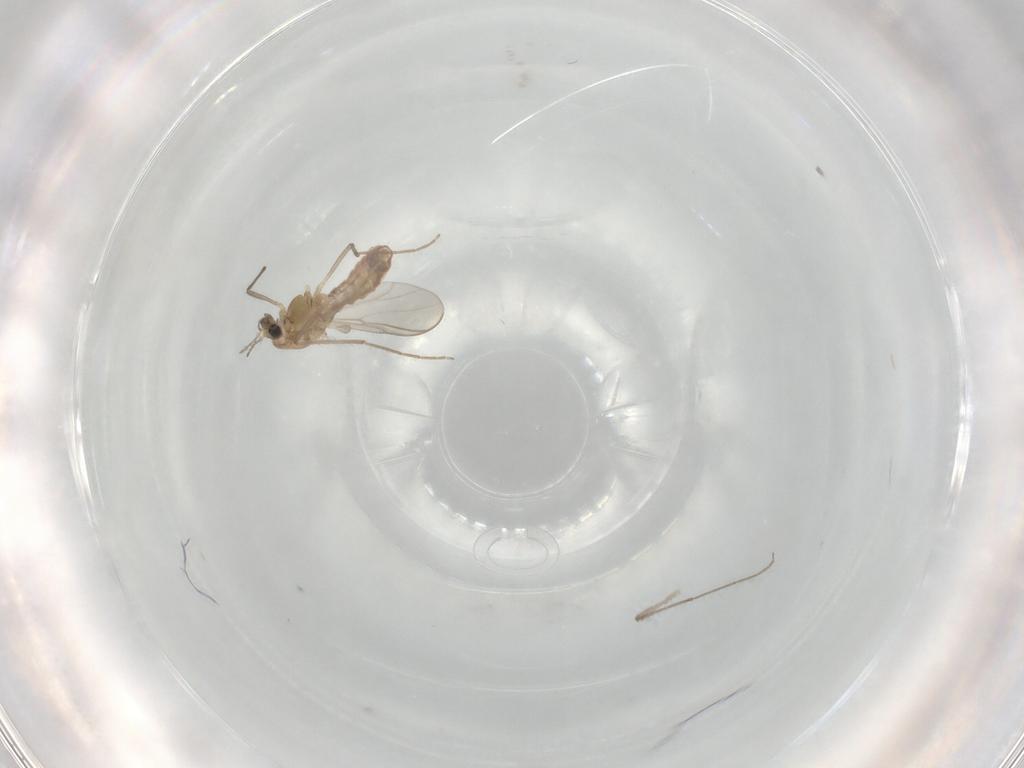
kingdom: Animalia
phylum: Arthropoda
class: Insecta
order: Diptera
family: Chironomidae
